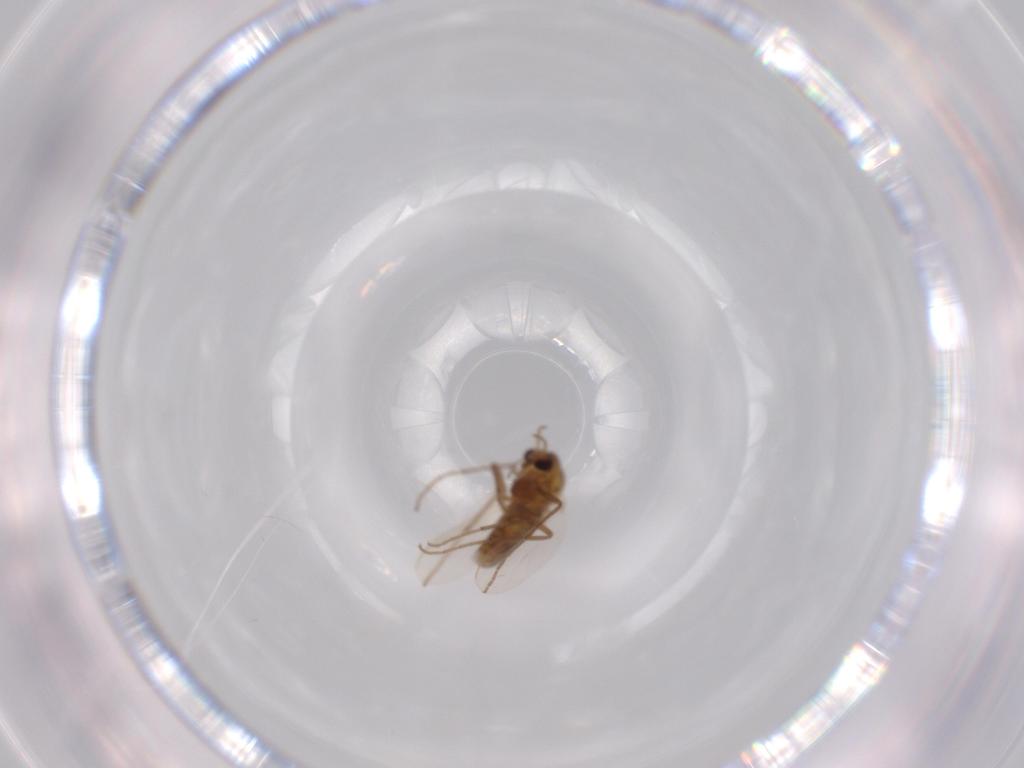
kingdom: Animalia
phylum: Arthropoda
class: Insecta
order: Diptera
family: Chironomidae
